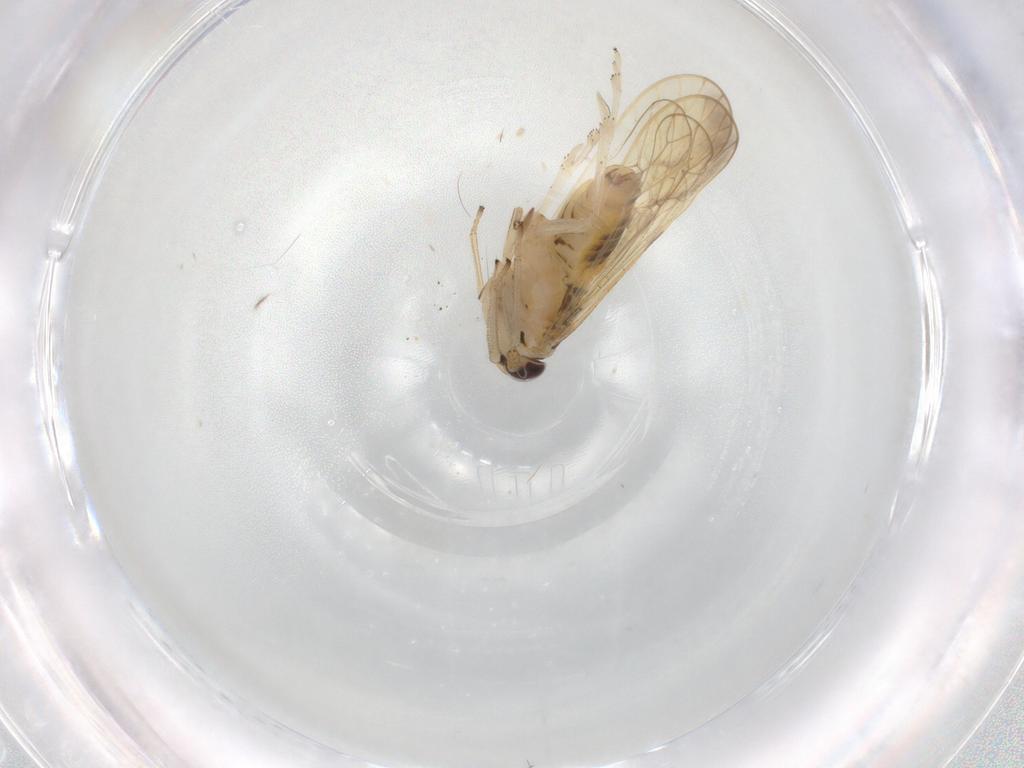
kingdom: Animalia
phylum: Arthropoda
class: Insecta
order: Hemiptera
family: Delphacidae
